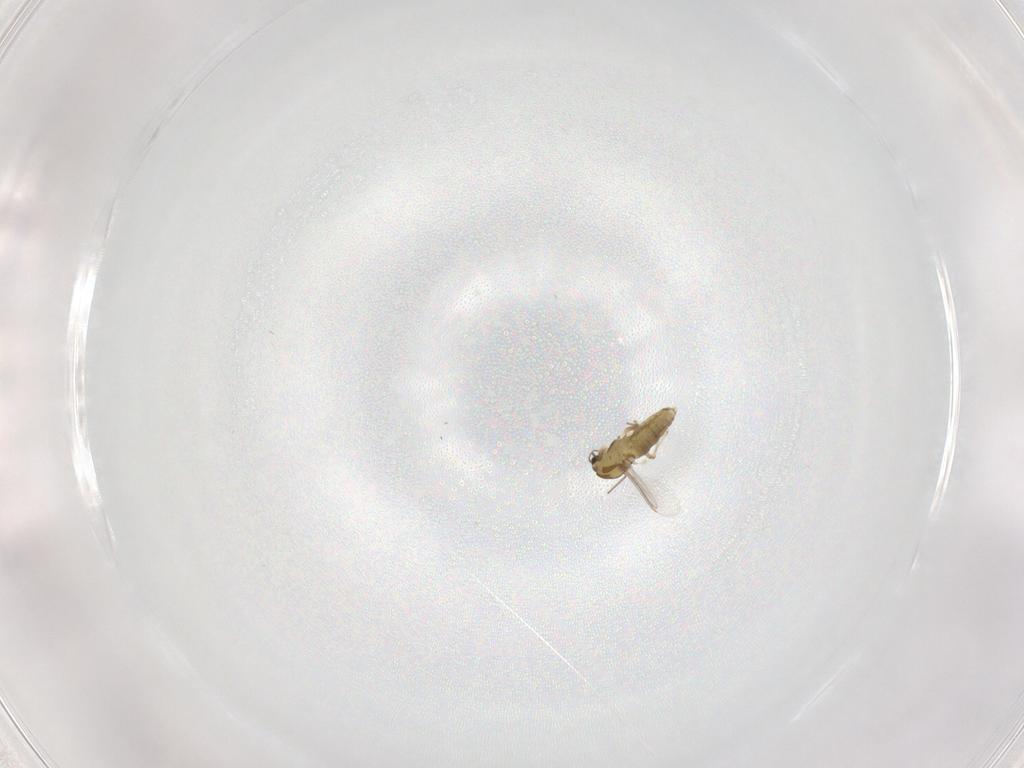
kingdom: Animalia
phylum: Arthropoda
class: Insecta
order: Diptera
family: Chironomidae
